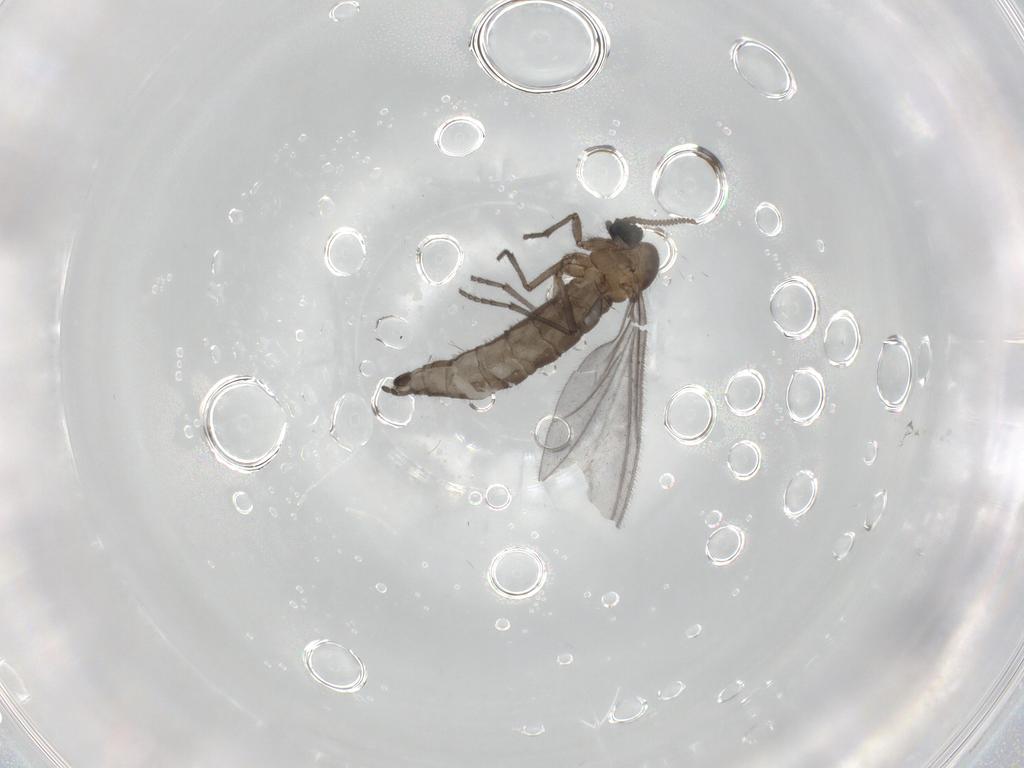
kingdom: Animalia
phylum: Arthropoda
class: Insecta
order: Diptera
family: Sciaridae
